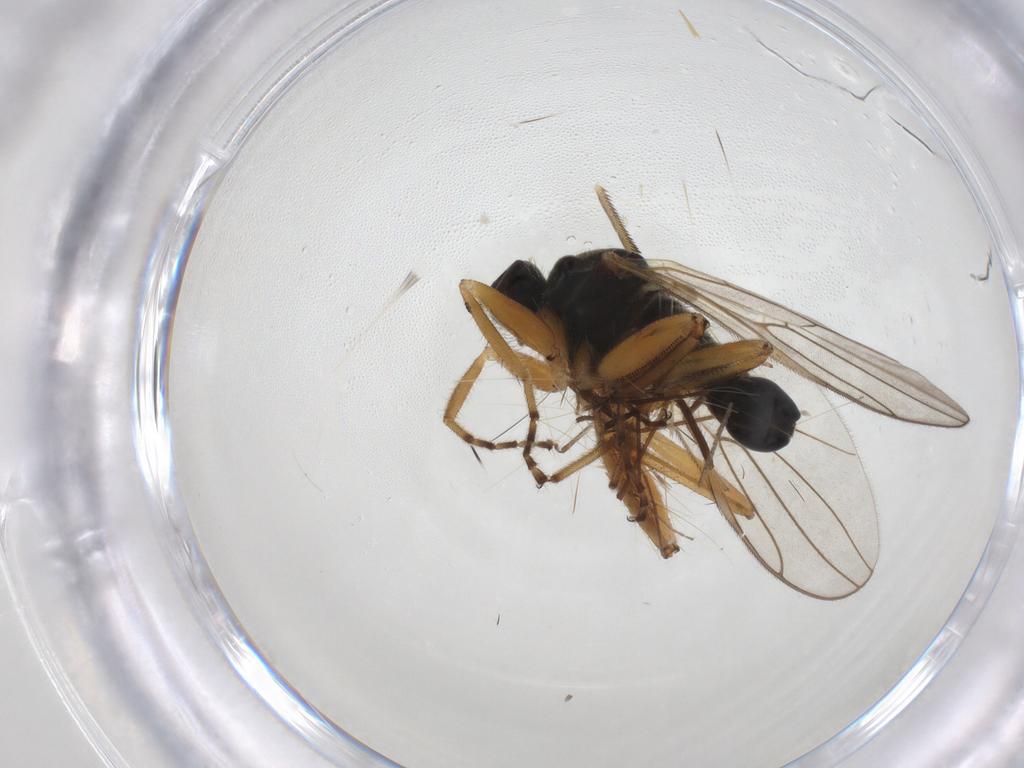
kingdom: Animalia
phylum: Arthropoda
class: Insecta
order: Diptera
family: Hybotidae
